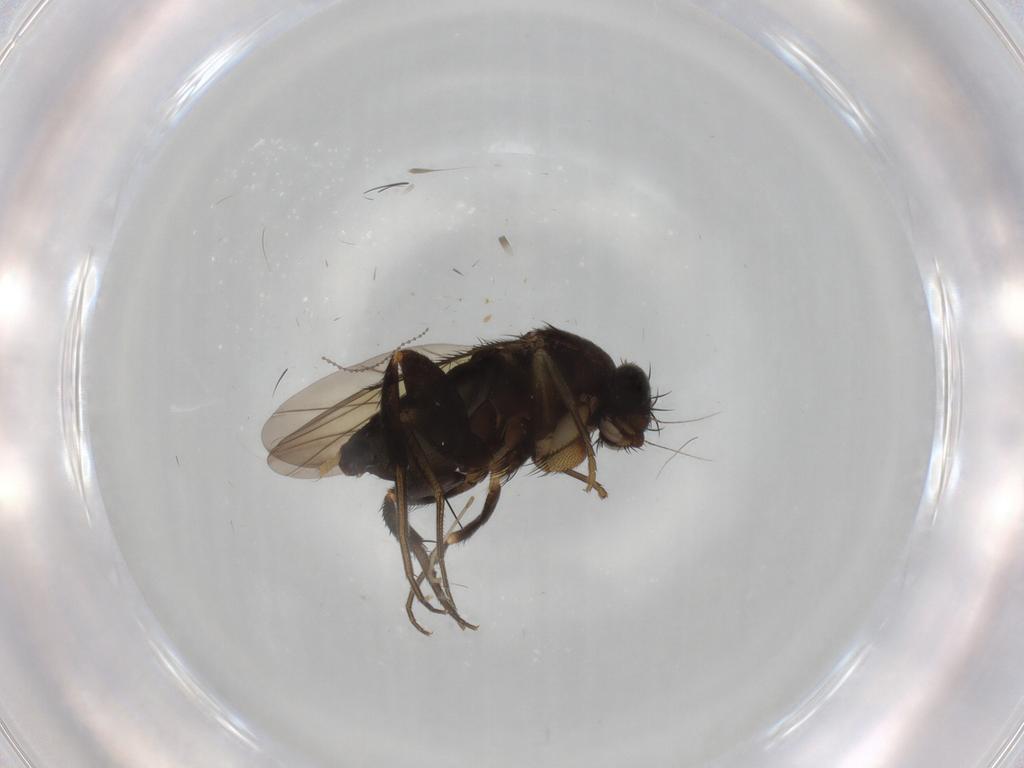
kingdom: Animalia
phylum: Arthropoda
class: Insecta
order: Diptera
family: Phoridae
